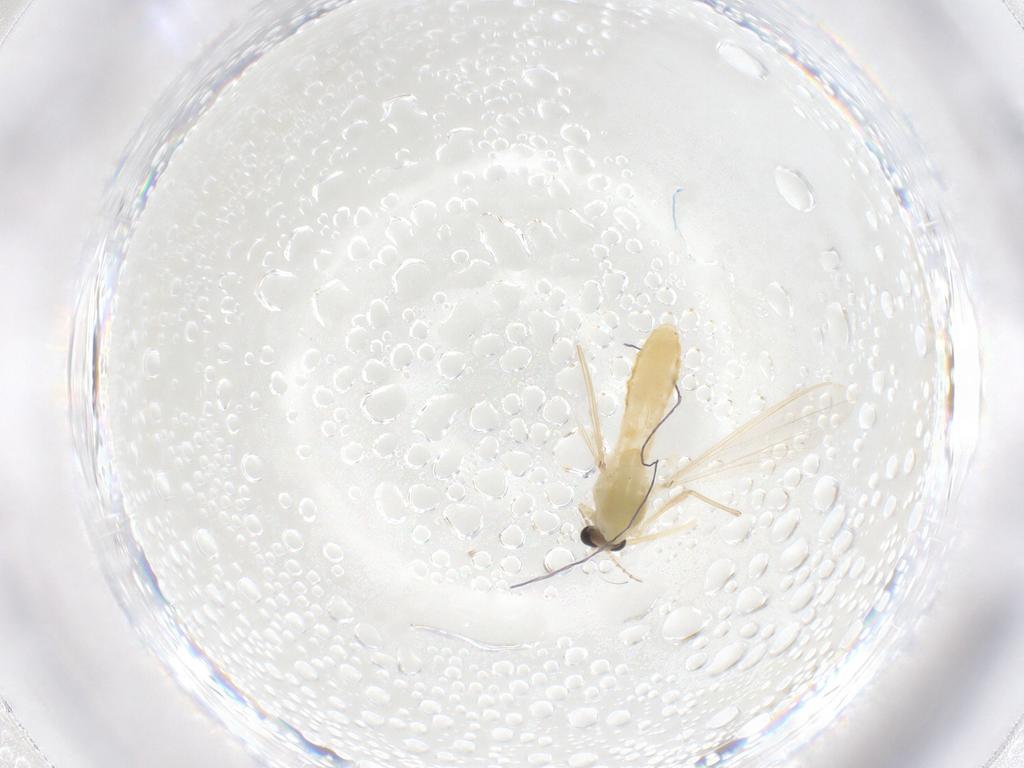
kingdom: Animalia
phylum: Arthropoda
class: Insecta
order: Diptera
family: Chironomidae
